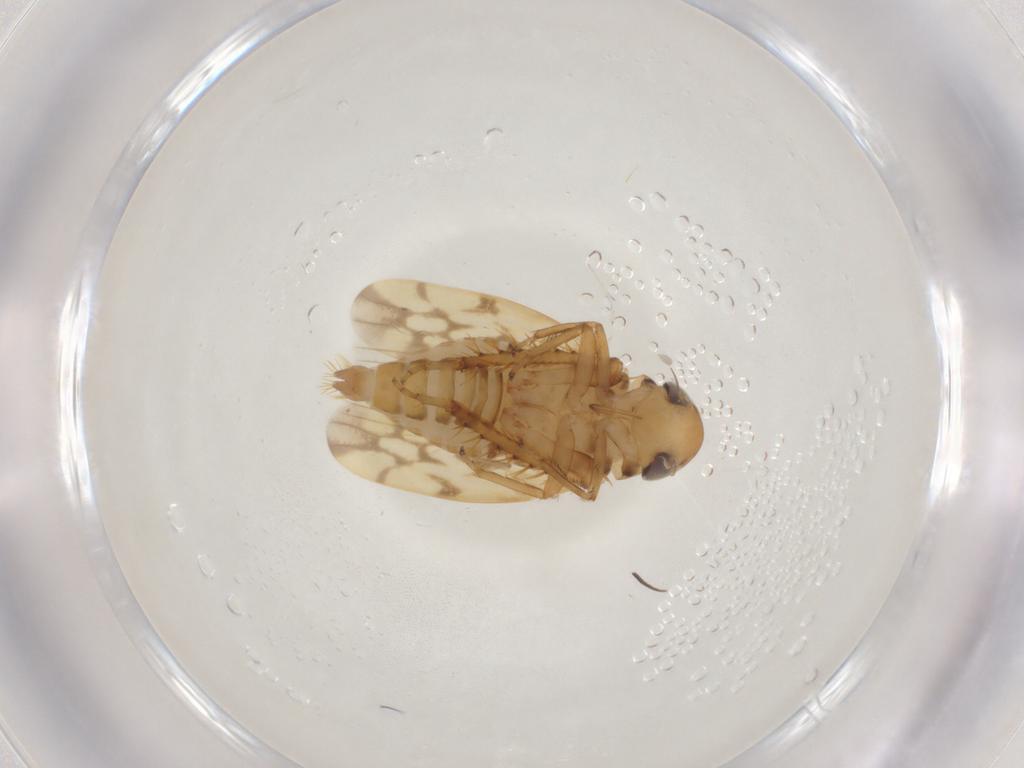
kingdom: Animalia
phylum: Arthropoda
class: Insecta
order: Hemiptera
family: Cicadellidae
